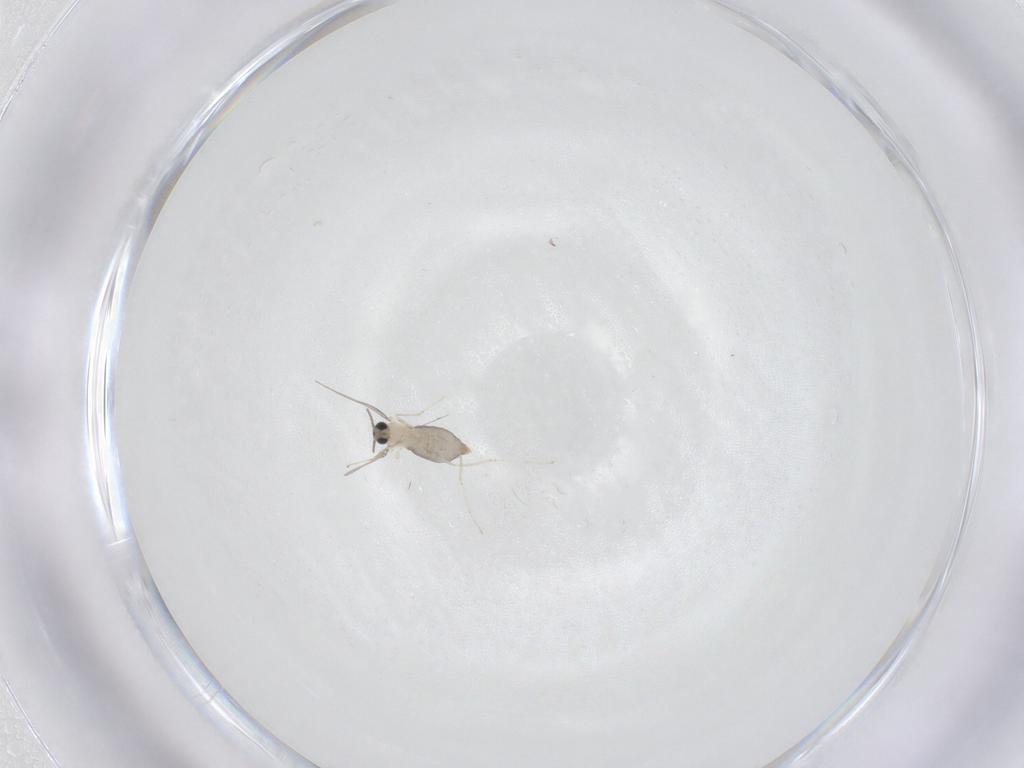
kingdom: Animalia
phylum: Arthropoda
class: Insecta
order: Diptera
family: Cecidomyiidae
